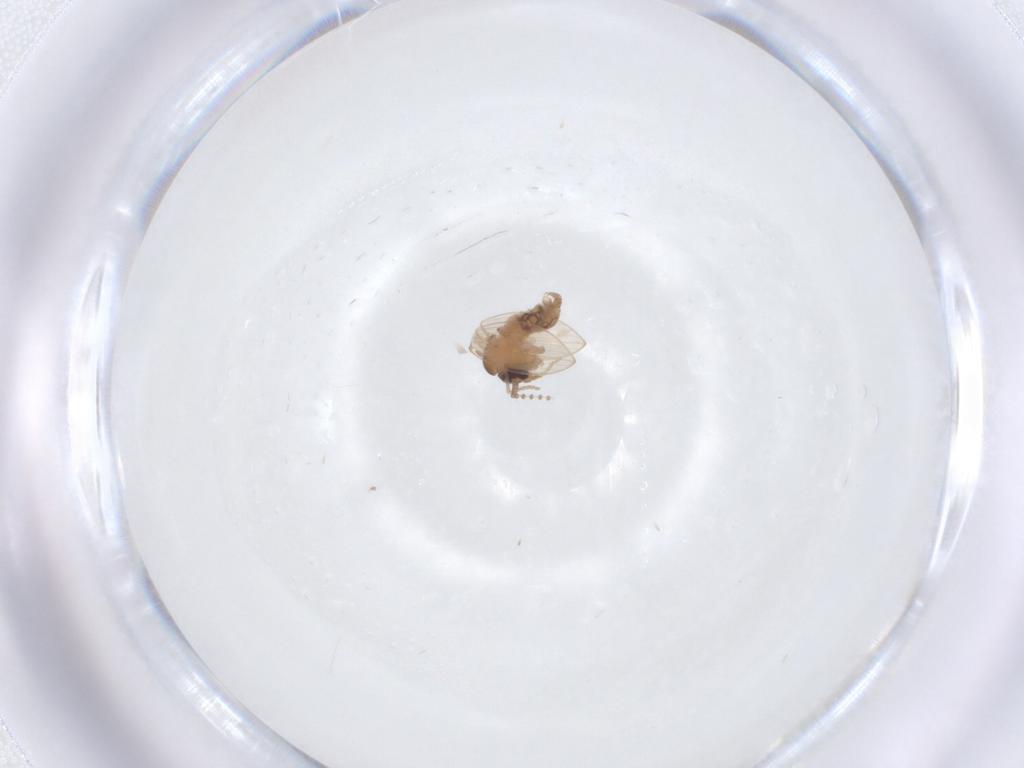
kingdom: Animalia
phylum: Arthropoda
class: Insecta
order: Diptera
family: Psychodidae
